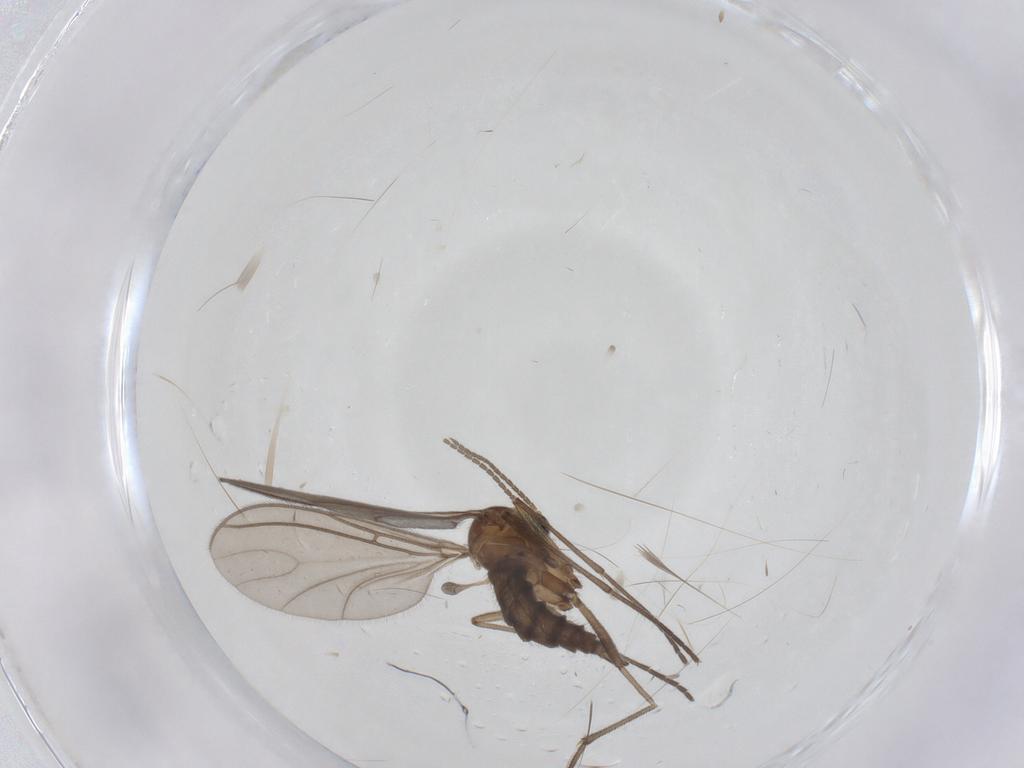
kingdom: Animalia
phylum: Arthropoda
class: Insecta
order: Diptera
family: Sciaridae
